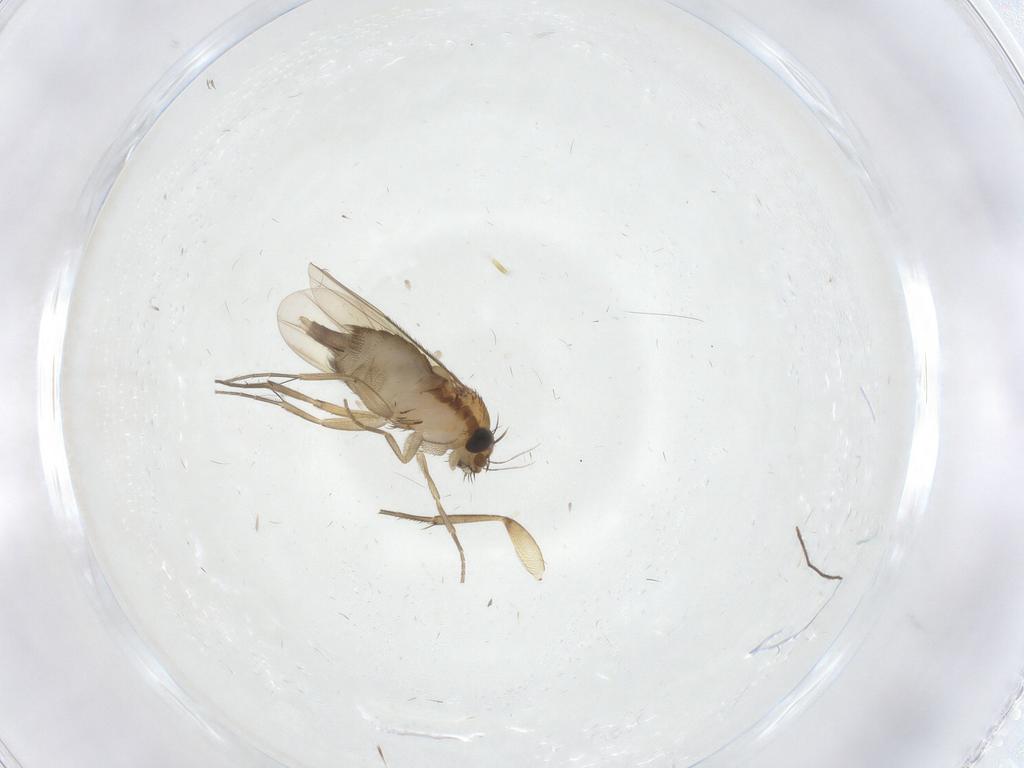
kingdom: Animalia
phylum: Arthropoda
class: Insecta
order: Diptera
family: Phoridae
